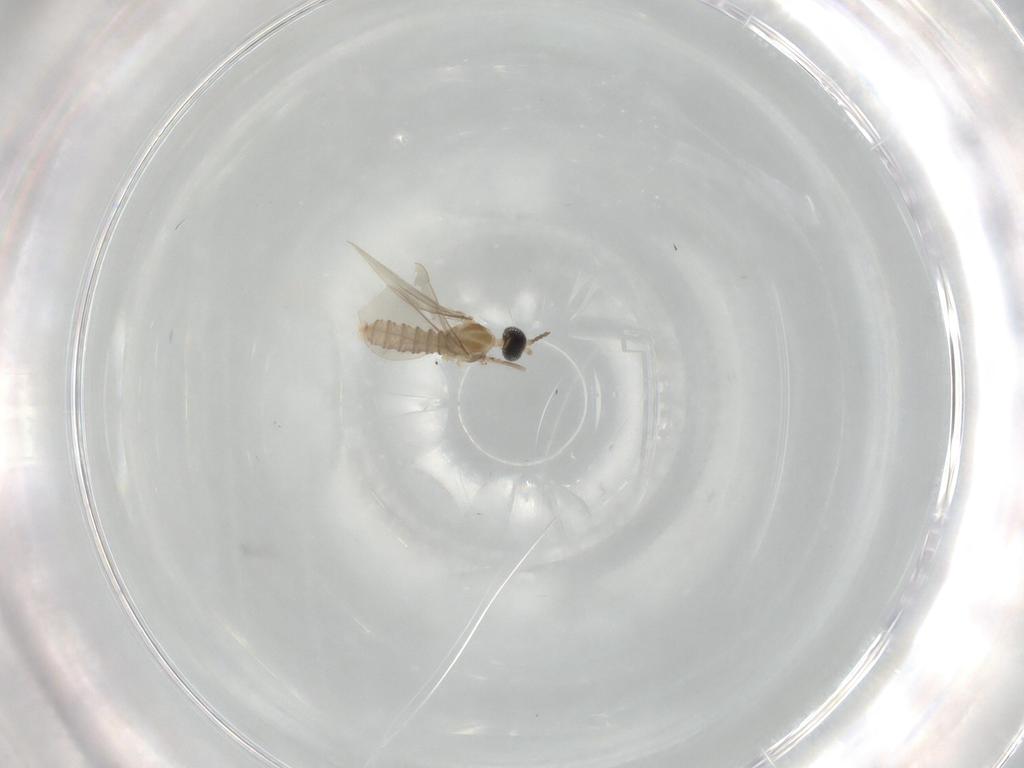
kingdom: Animalia
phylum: Arthropoda
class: Insecta
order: Diptera
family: Cecidomyiidae
